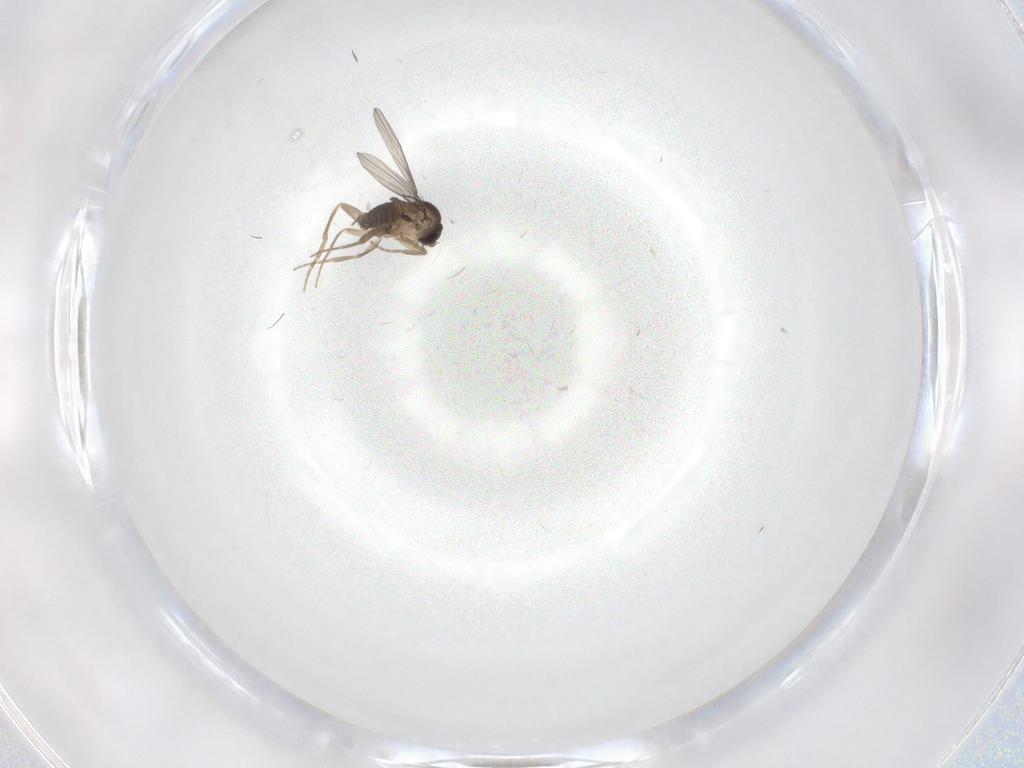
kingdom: Animalia
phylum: Arthropoda
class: Insecta
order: Diptera
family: Phoridae
